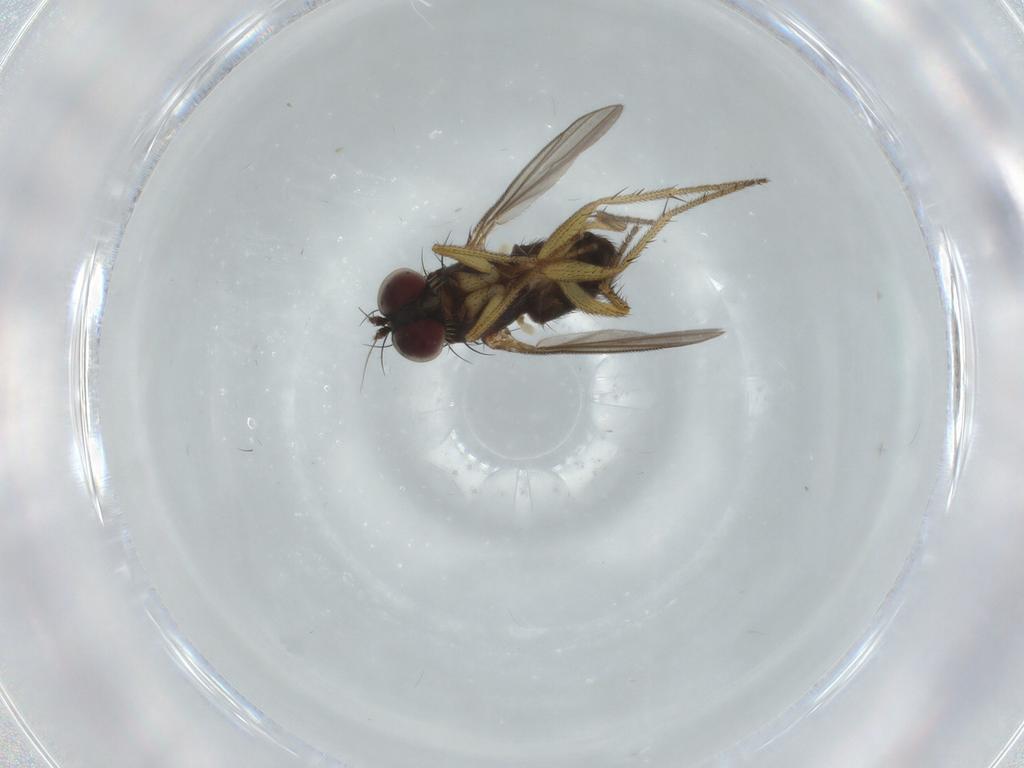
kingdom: Animalia
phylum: Arthropoda
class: Insecta
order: Diptera
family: Dolichopodidae
